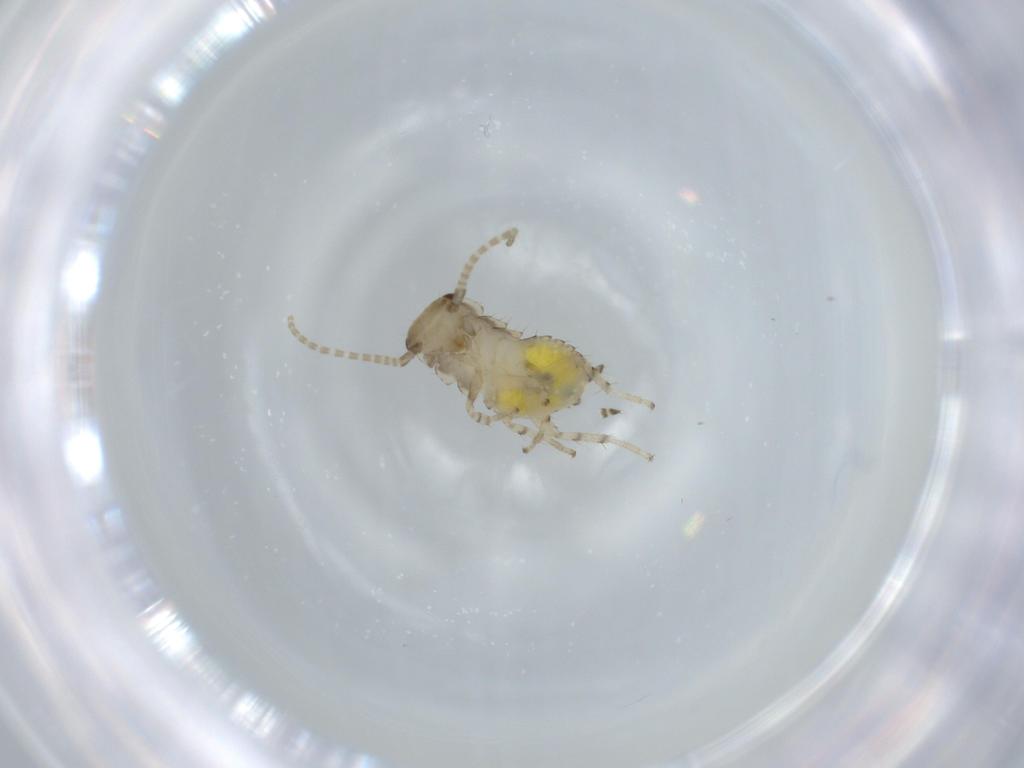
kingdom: Animalia
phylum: Arthropoda
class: Insecta
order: Blattodea
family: Ectobiidae
